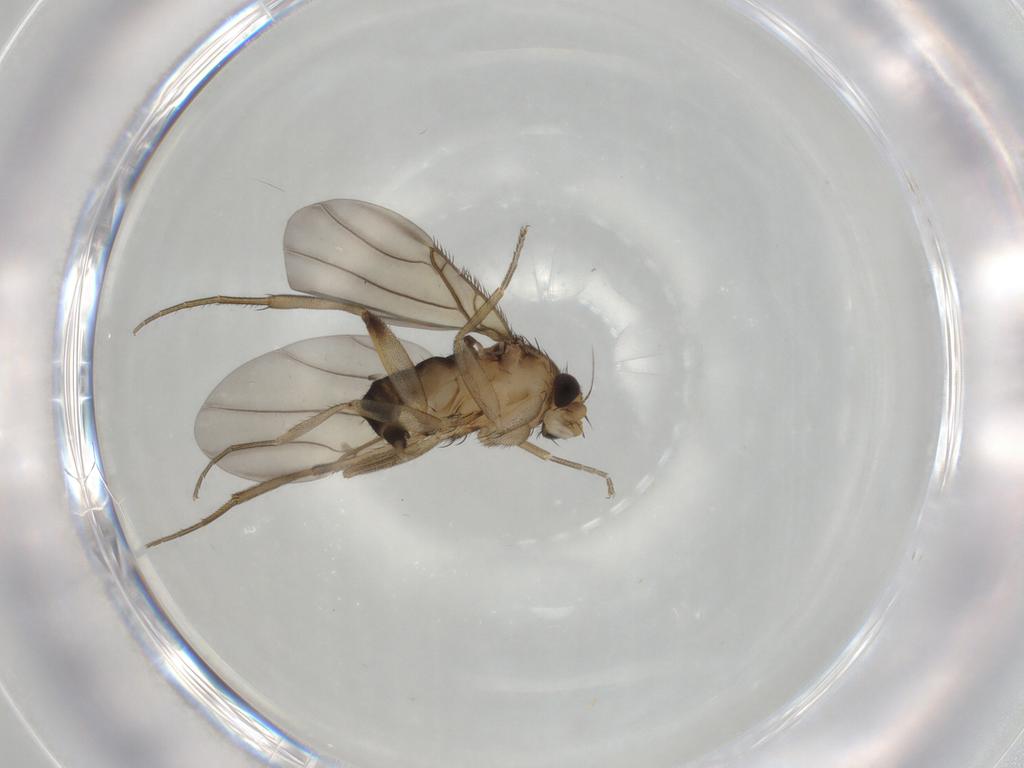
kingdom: Animalia
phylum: Arthropoda
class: Insecta
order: Diptera
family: Phoridae
